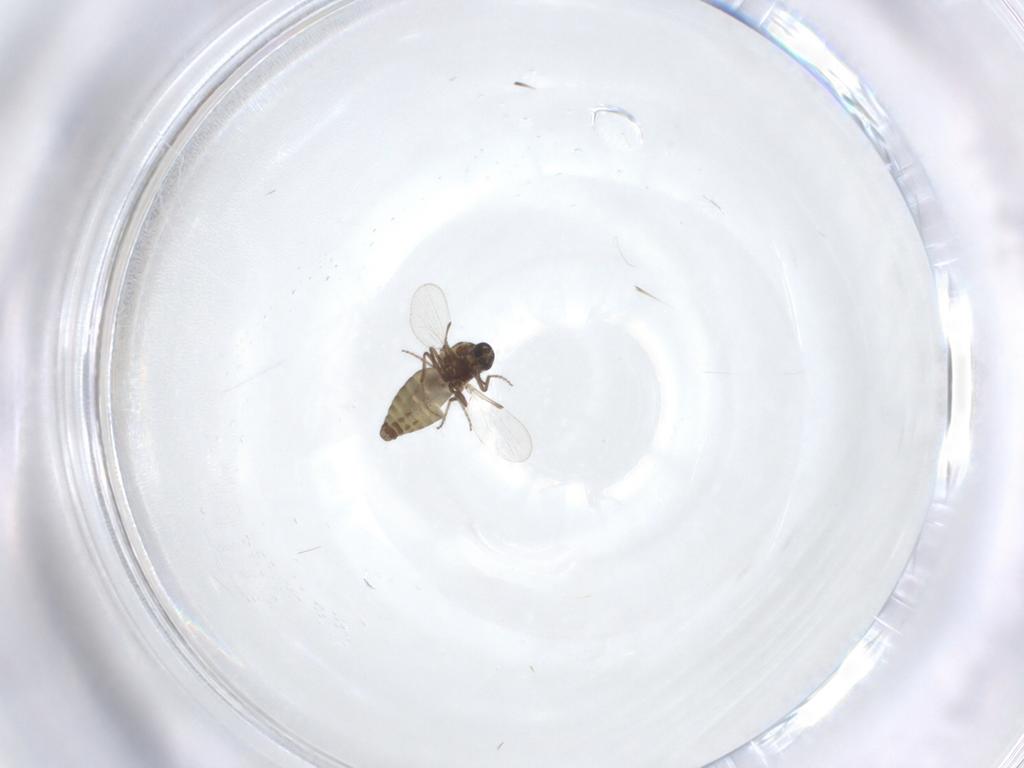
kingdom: Animalia
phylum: Arthropoda
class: Insecta
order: Diptera
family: Ceratopogonidae
